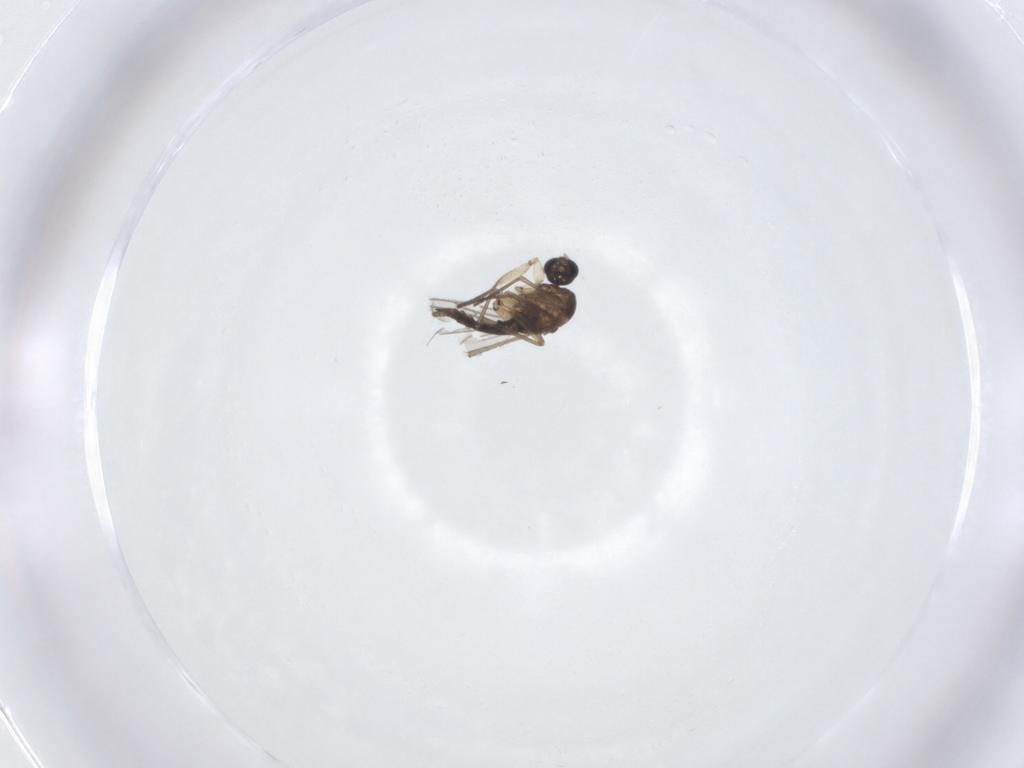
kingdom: Animalia
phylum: Arthropoda
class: Insecta
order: Diptera
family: Sciaridae
